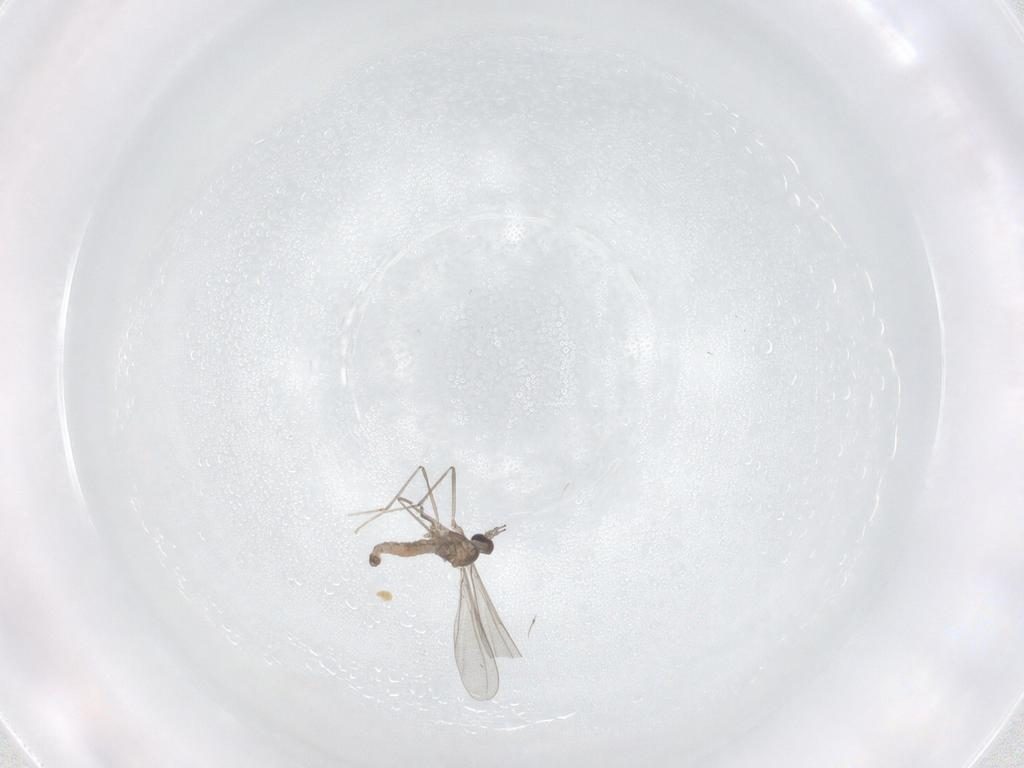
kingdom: Animalia
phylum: Arthropoda
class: Insecta
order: Diptera
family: Cecidomyiidae
